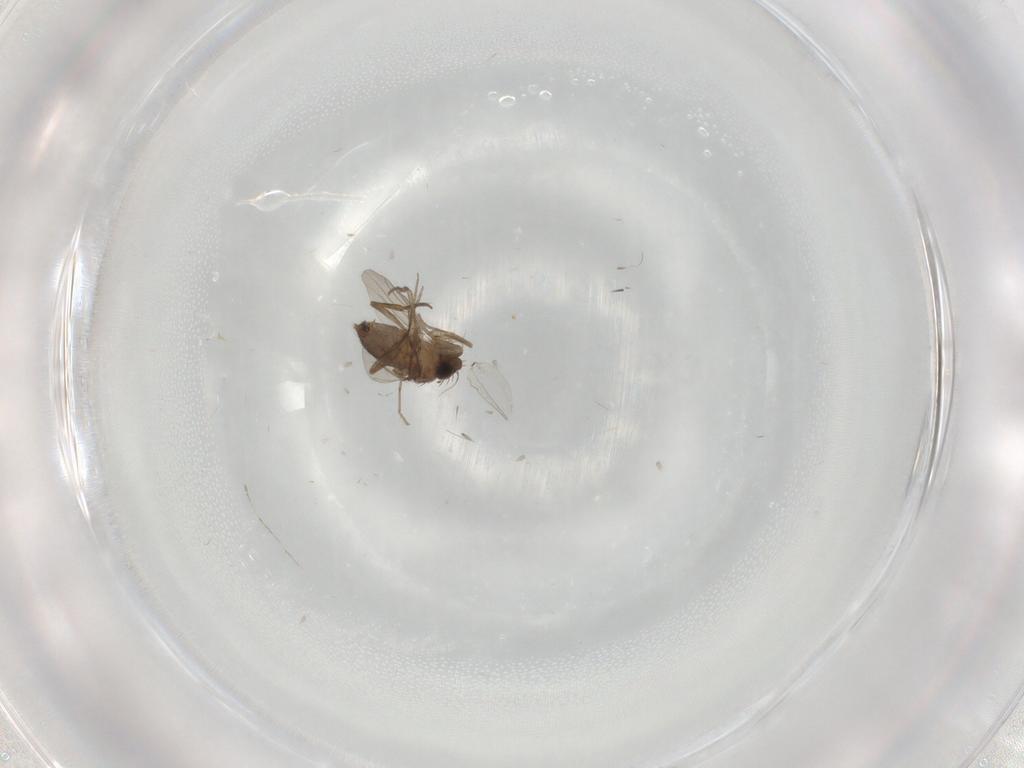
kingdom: Animalia
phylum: Arthropoda
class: Insecta
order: Diptera
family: Phoridae
